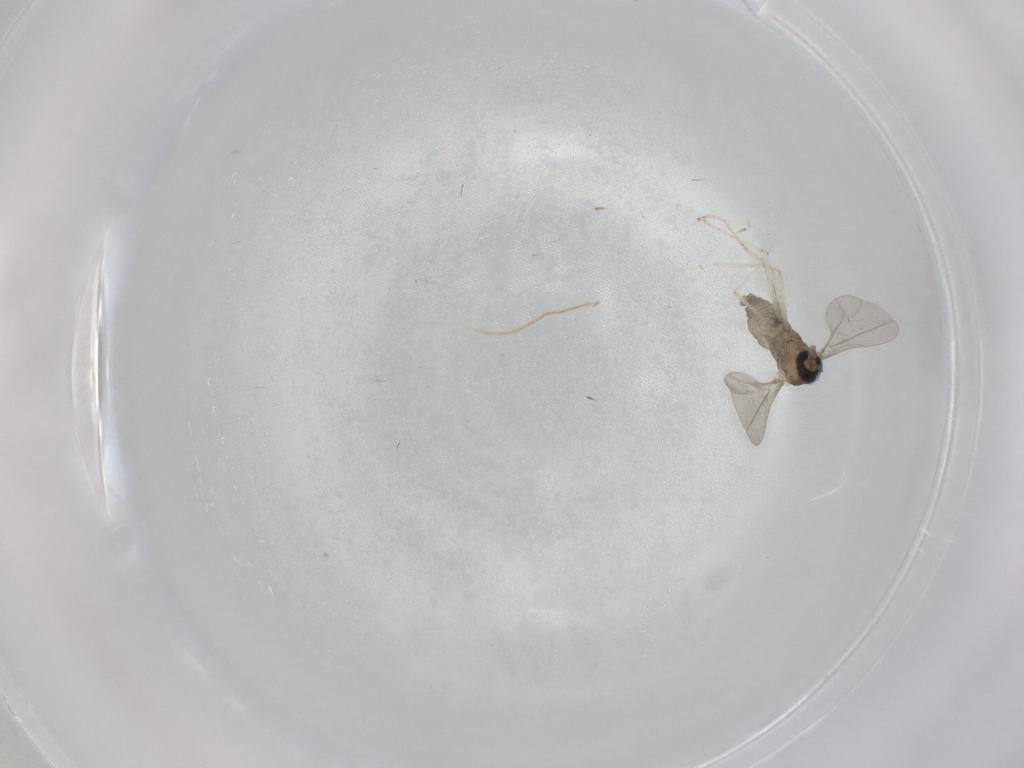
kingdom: Animalia
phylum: Arthropoda
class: Insecta
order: Diptera
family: Cecidomyiidae
